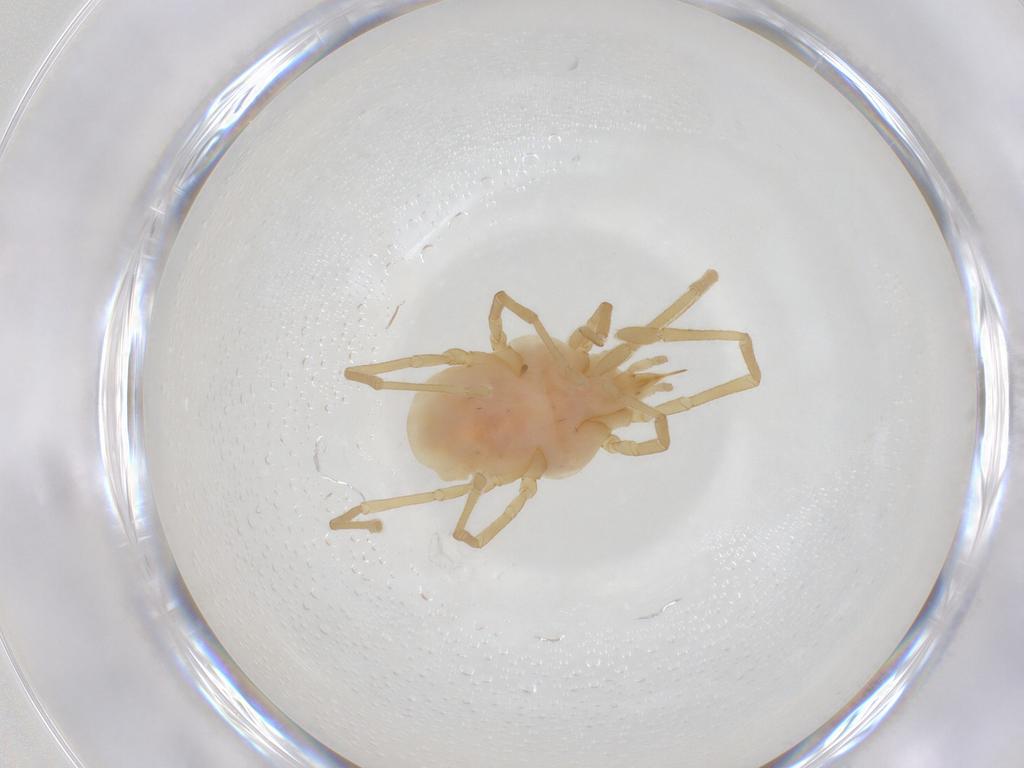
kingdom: Animalia
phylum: Arthropoda
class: Arachnida
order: Trombidiformes
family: Erythraeidae
